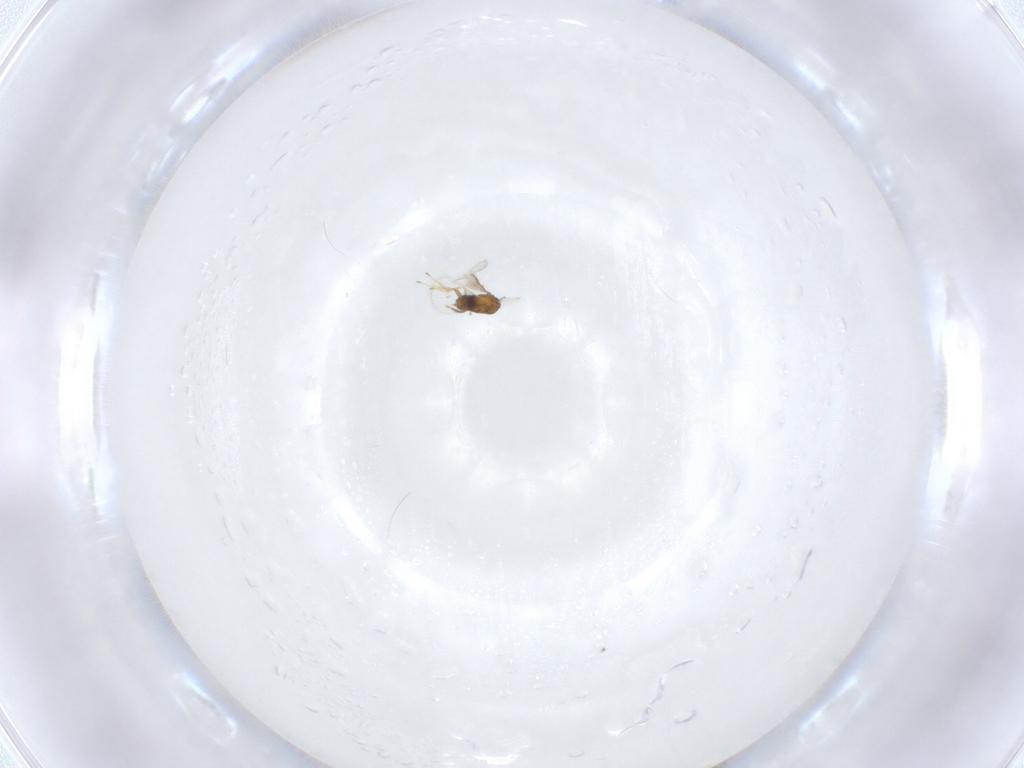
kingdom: Animalia
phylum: Arthropoda
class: Insecta
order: Hymenoptera
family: Trichogrammatidae
